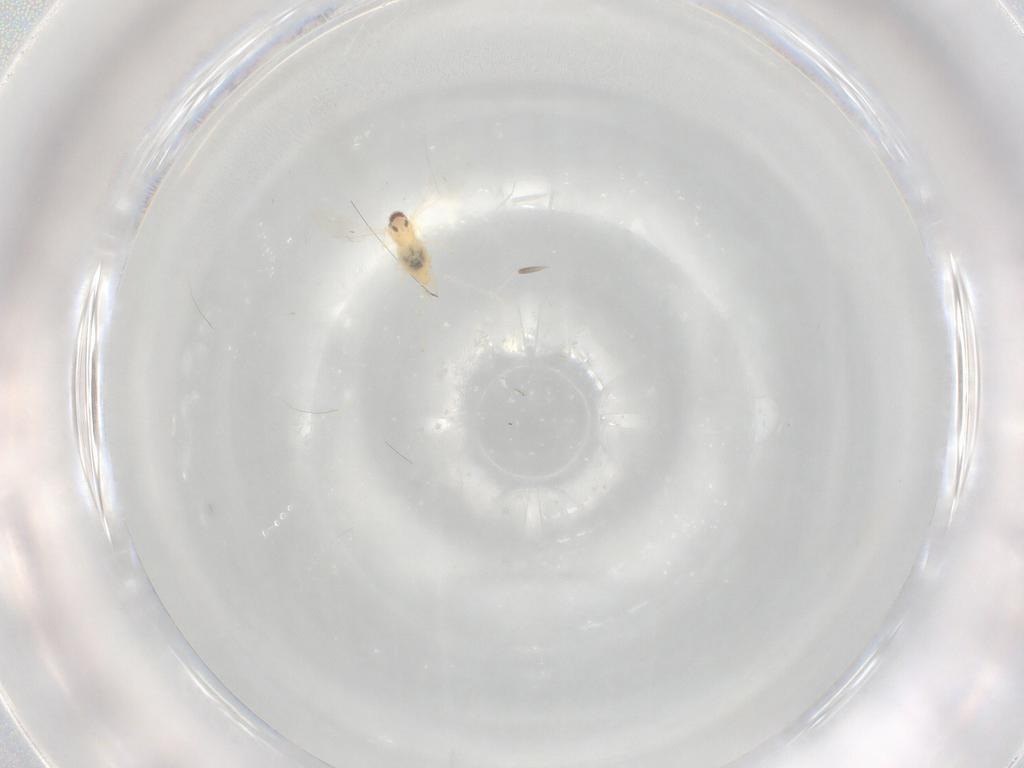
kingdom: Animalia
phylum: Arthropoda
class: Insecta
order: Diptera
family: Cecidomyiidae
